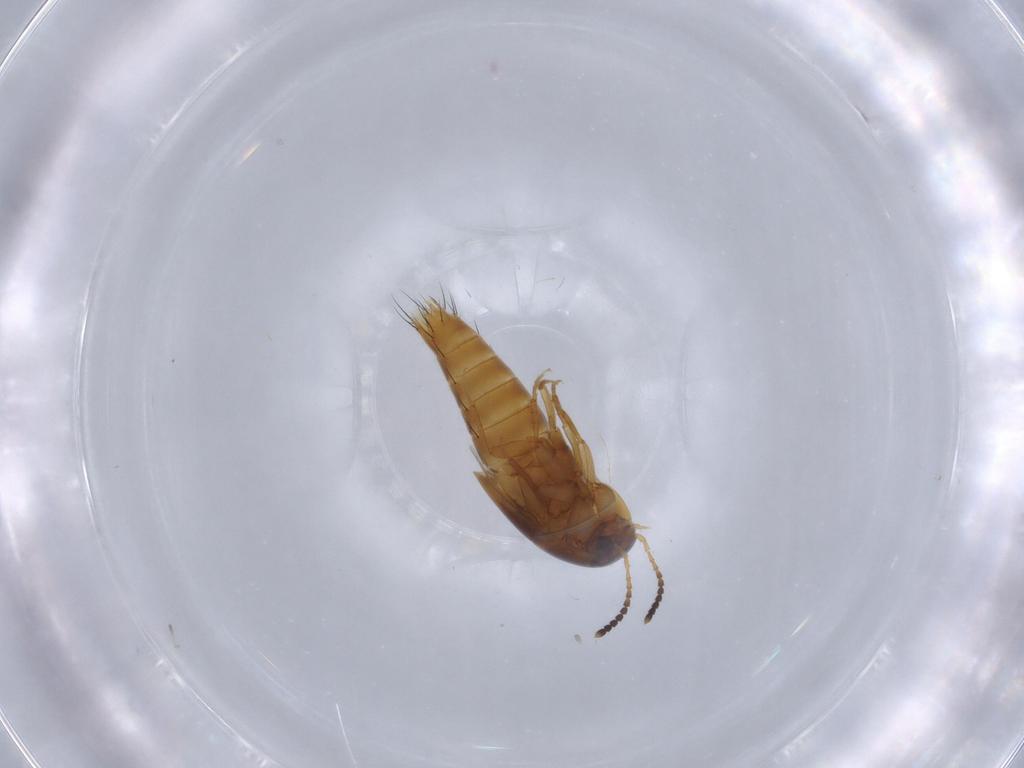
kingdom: Animalia
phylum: Arthropoda
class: Insecta
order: Coleoptera
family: Staphylinidae
